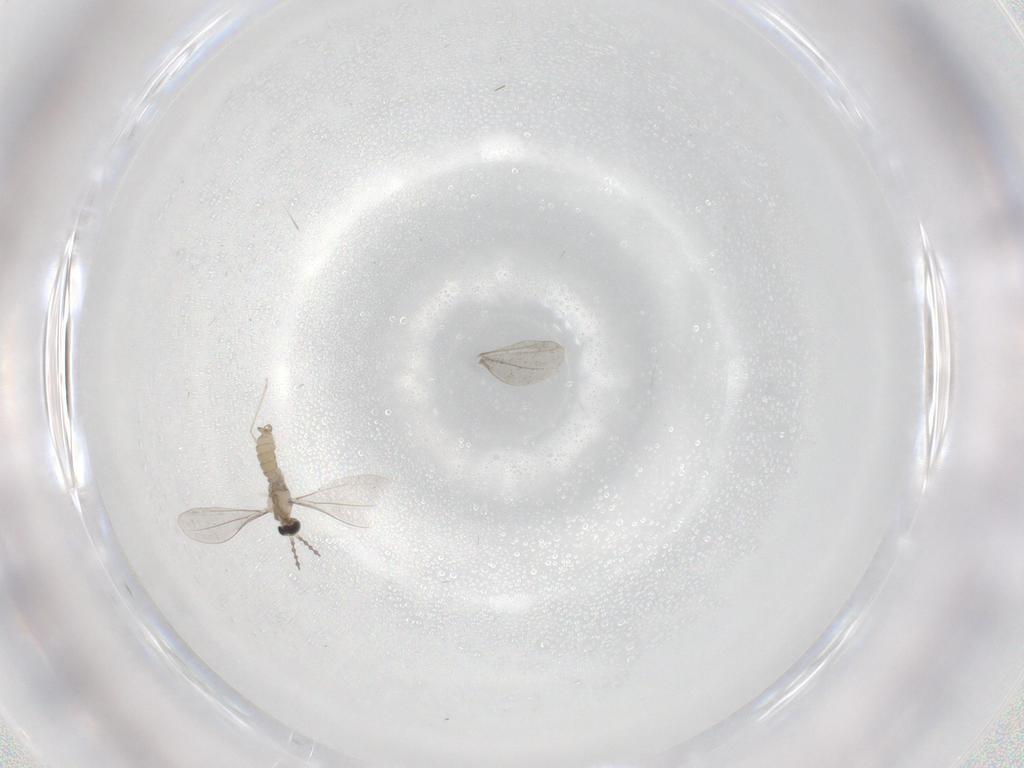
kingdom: Animalia
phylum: Arthropoda
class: Insecta
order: Diptera
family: Cecidomyiidae
